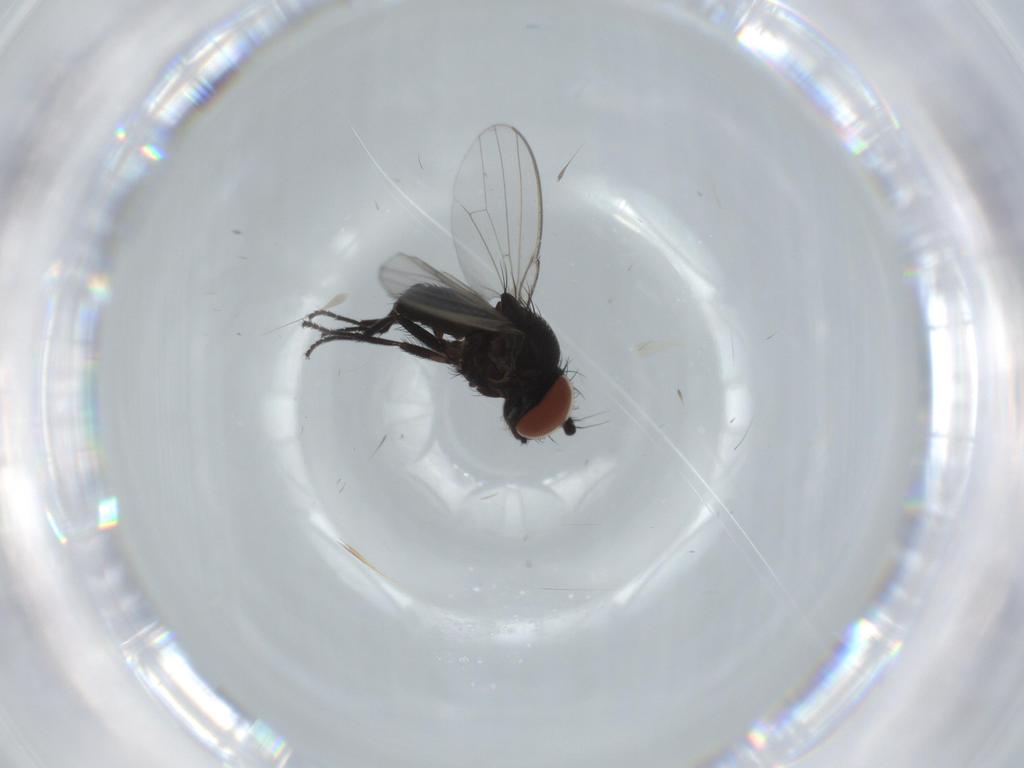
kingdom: Animalia
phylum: Arthropoda
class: Insecta
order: Diptera
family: Milichiidae
